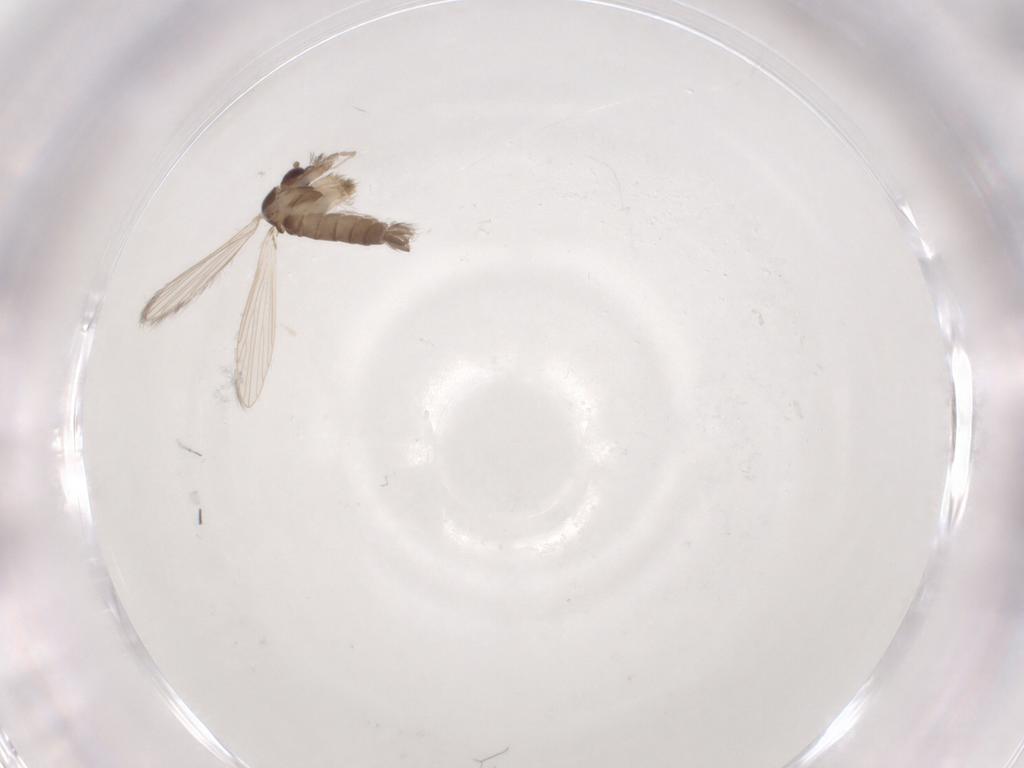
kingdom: Animalia
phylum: Arthropoda
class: Insecta
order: Diptera
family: Psychodidae
